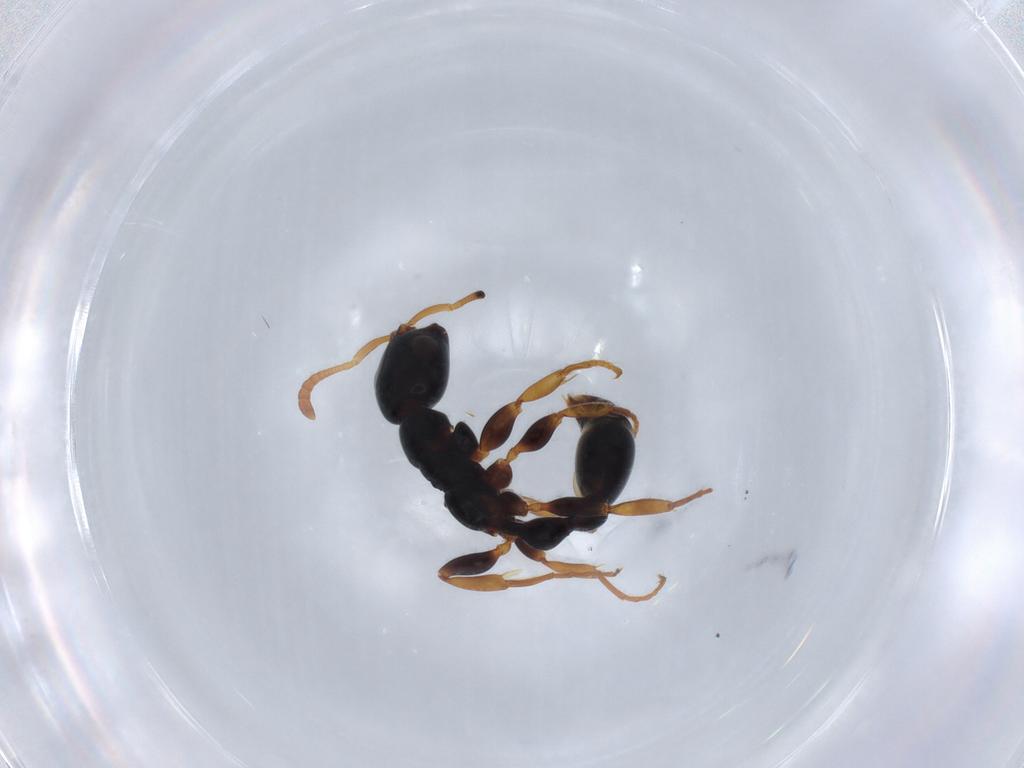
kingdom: Animalia
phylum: Arthropoda
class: Insecta
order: Hymenoptera
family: Formicidae
